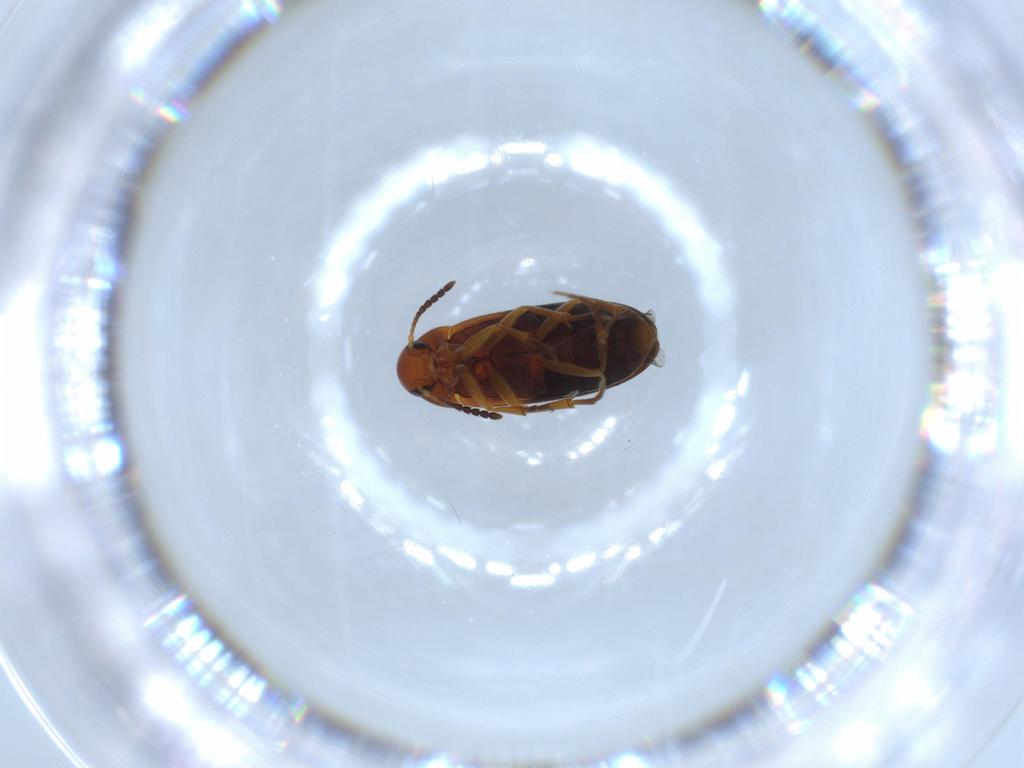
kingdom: Animalia
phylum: Arthropoda
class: Insecta
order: Coleoptera
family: Scraptiidae
